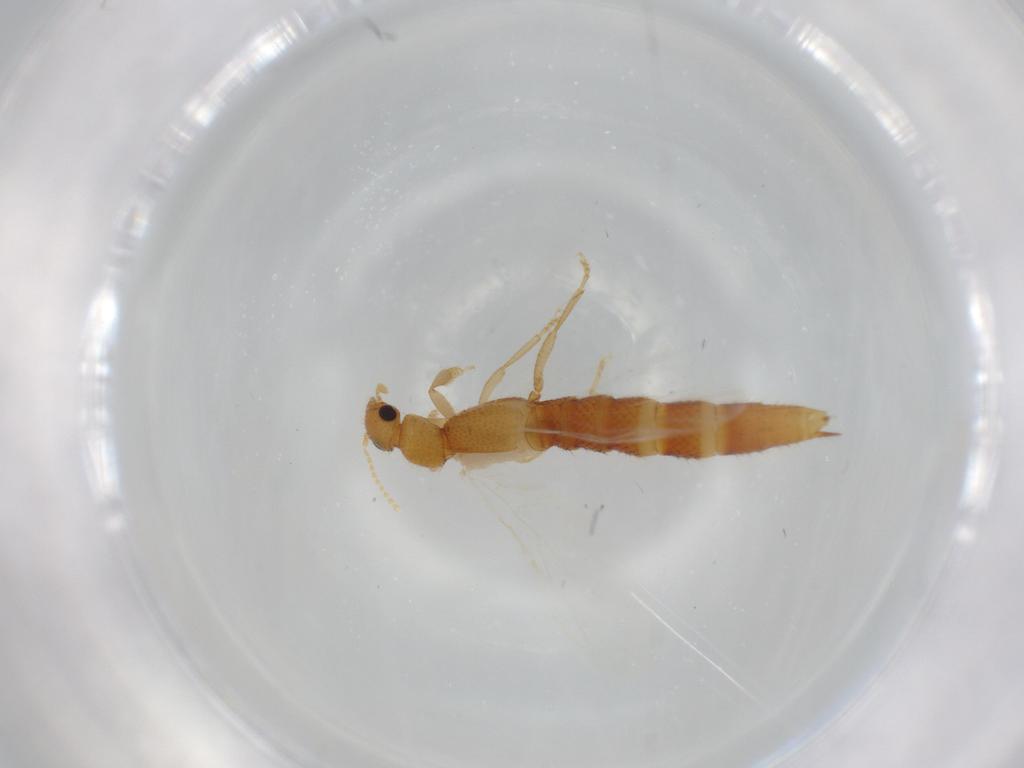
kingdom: Animalia
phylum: Arthropoda
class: Insecta
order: Coleoptera
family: Staphylinidae
